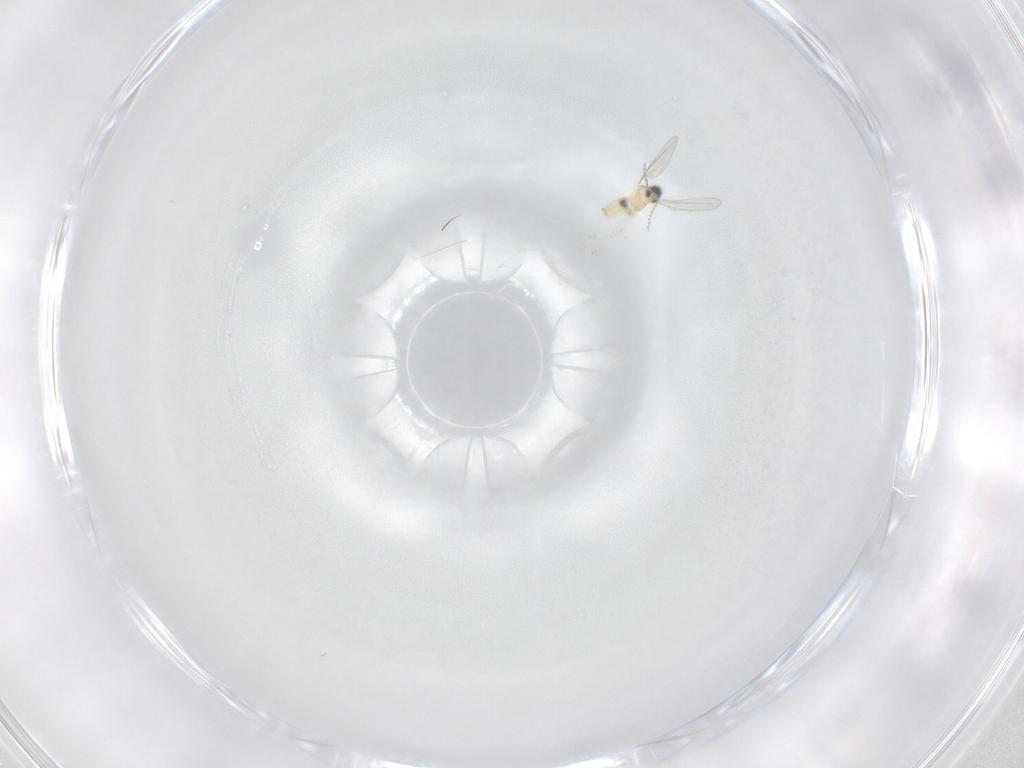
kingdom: Animalia
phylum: Arthropoda
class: Insecta
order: Diptera
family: Cecidomyiidae
